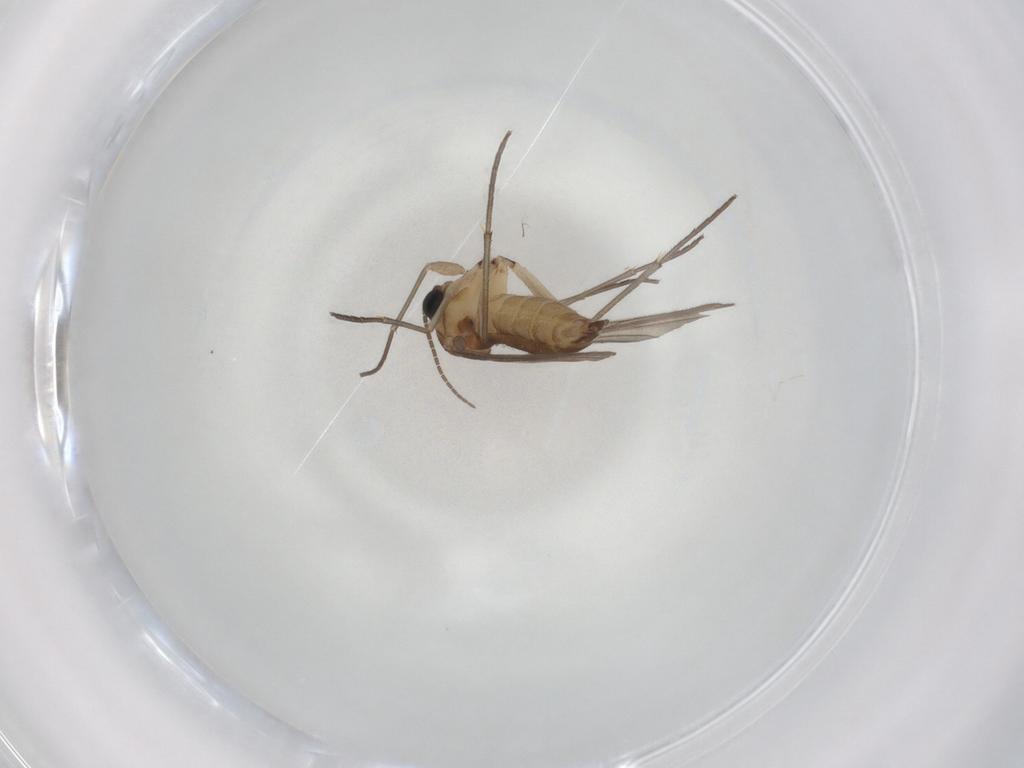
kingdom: Animalia
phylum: Arthropoda
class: Insecta
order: Diptera
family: Sciaridae
